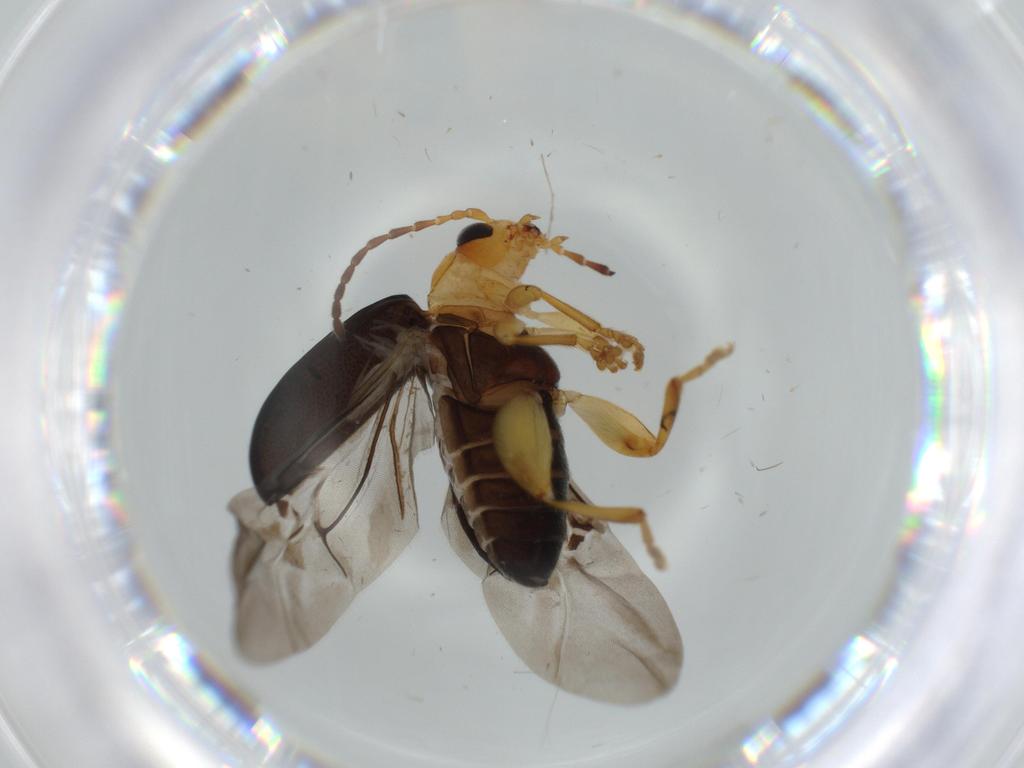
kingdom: Animalia
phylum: Arthropoda
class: Insecta
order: Coleoptera
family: Chrysomelidae
